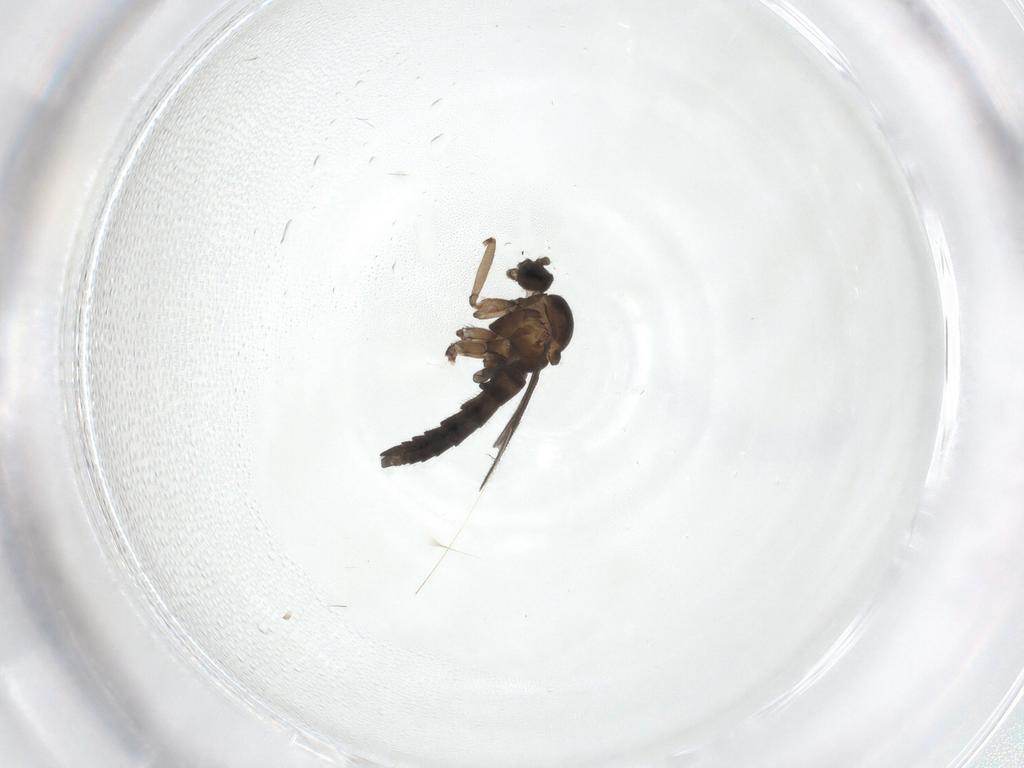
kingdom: Animalia
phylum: Arthropoda
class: Insecta
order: Diptera
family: Sciaridae
